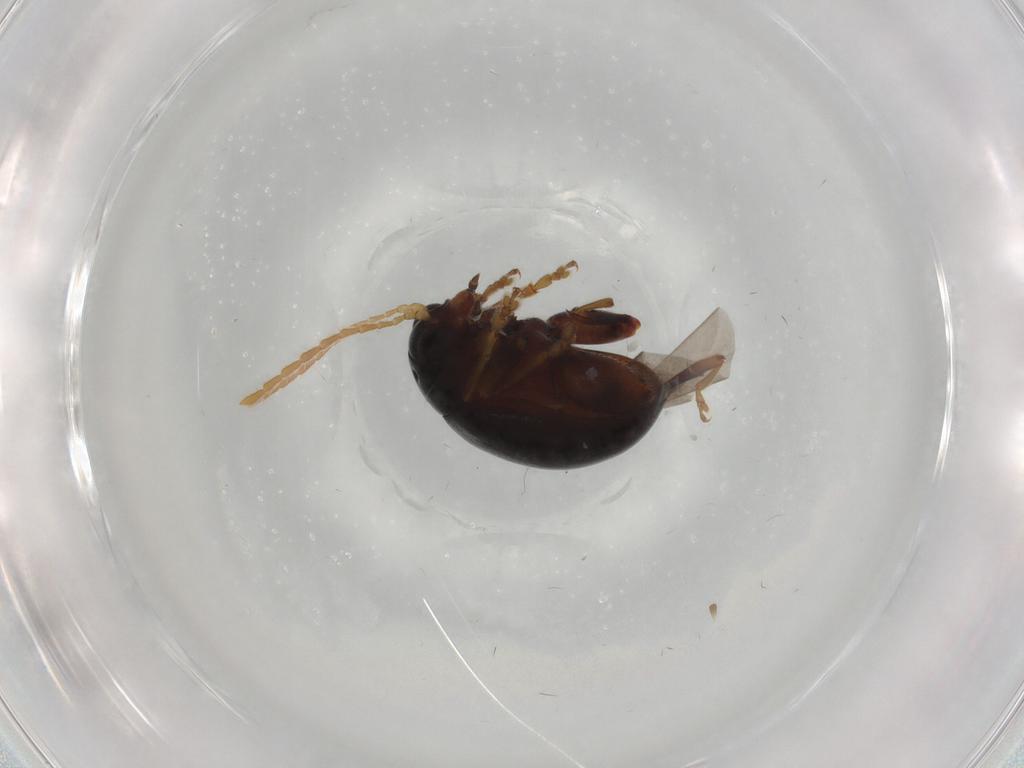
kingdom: Animalia
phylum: Arthropoda
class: Insecta
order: Coleoptera
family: Chrysomelidae
